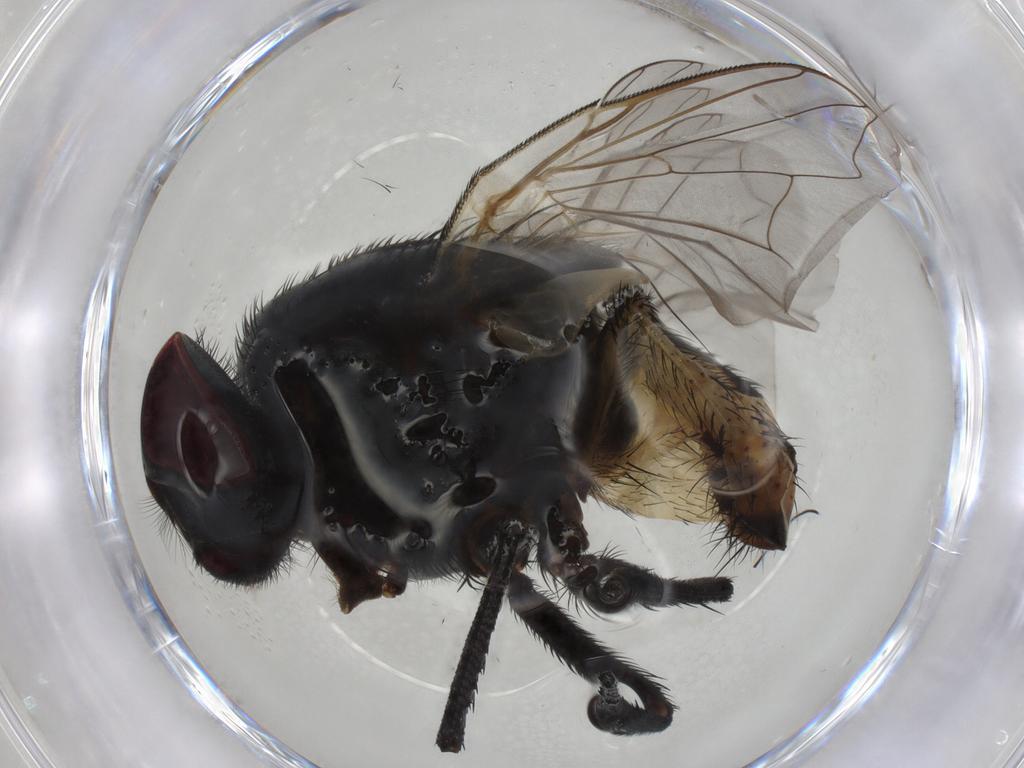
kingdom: Animalia
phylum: Arthropoda
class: Insecta
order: Diptera
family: Muscidae
